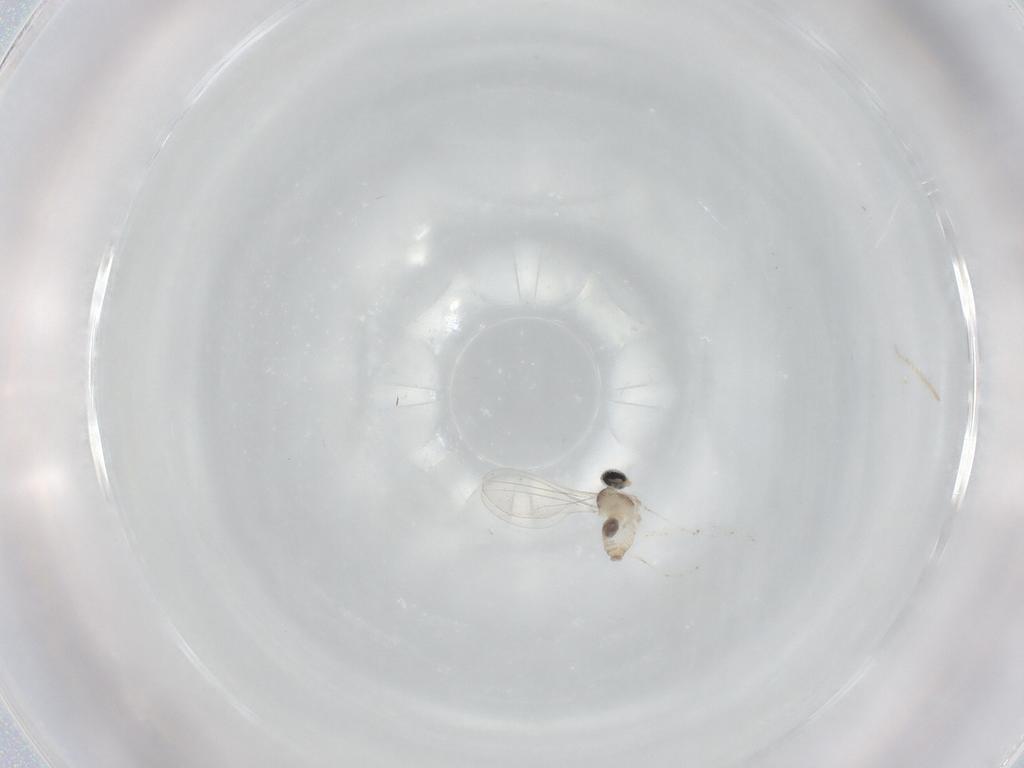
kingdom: Animalia
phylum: Arthropoda
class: Insecta
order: Diptera
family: Cecidomyiidae
